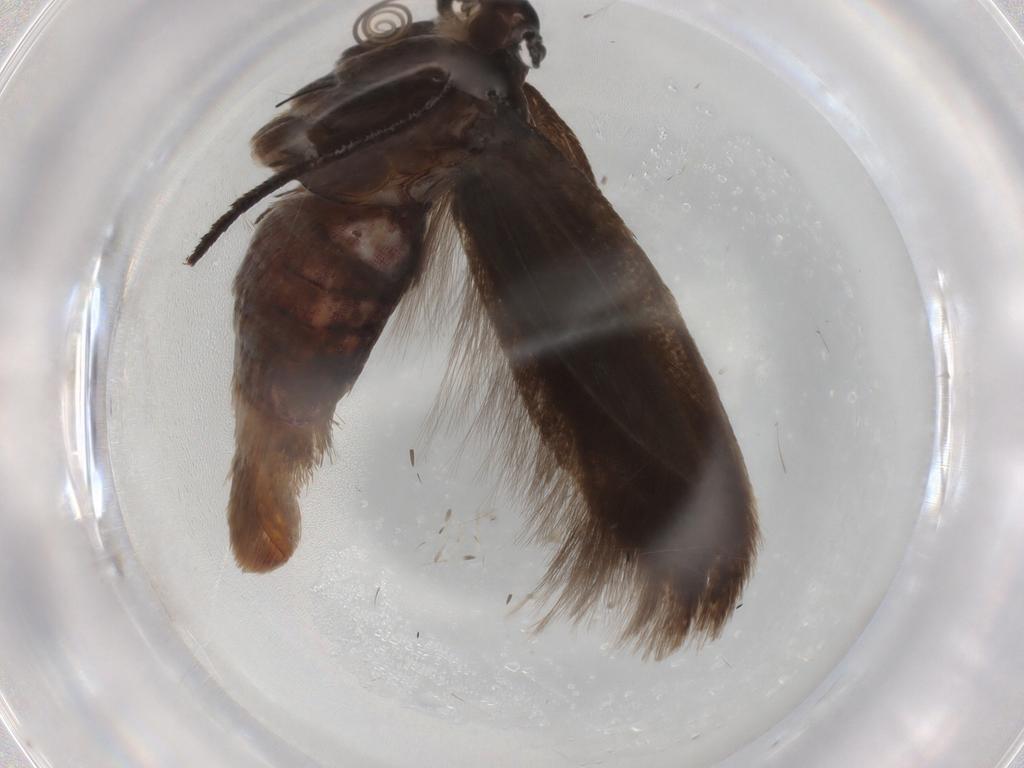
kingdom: Animalia
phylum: Arthropoda
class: Insecta
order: Lepidoptera
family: Scythrididae
